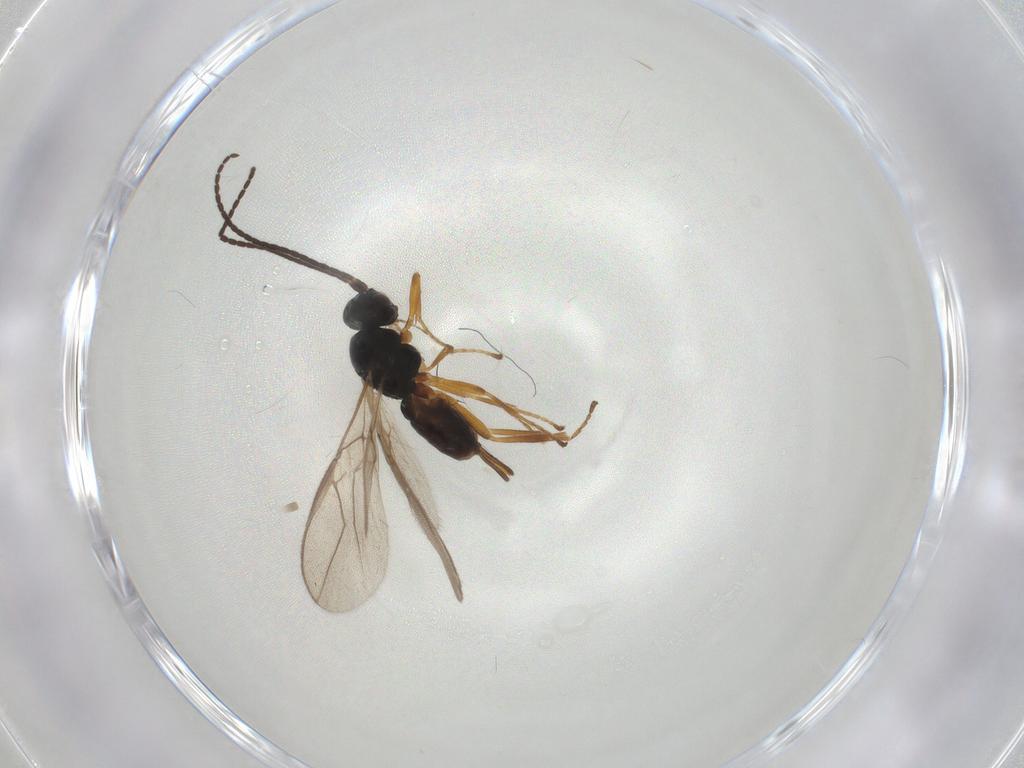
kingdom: Animalia
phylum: Arthropoda
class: Insecta
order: Hymenoptera
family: Braconidae
